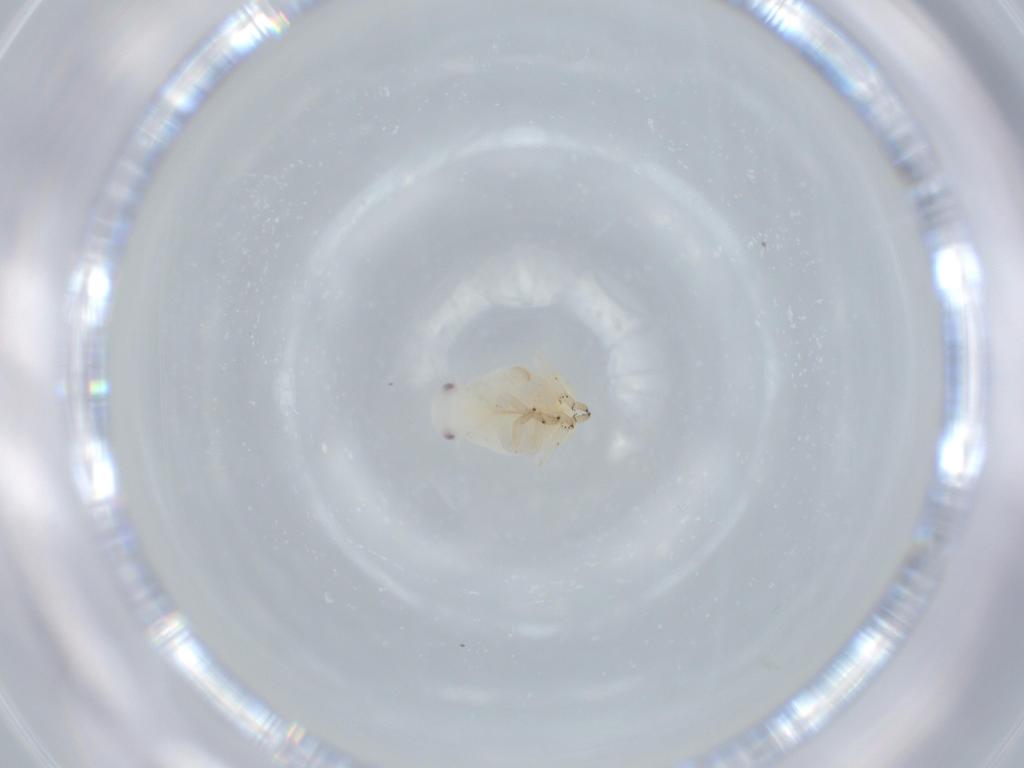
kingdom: Animalia
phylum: Arthropoda
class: Insecta
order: Hemiptera
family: Flatidae
